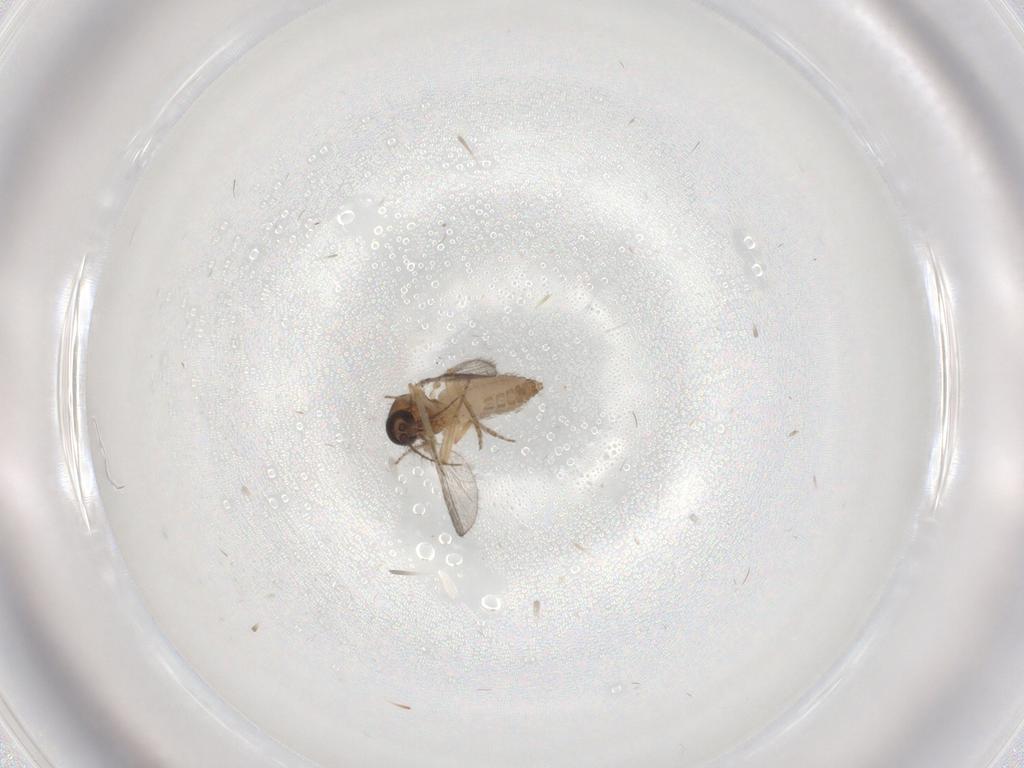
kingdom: Animalia
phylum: Arthropoda
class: Insecta
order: Diptera
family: Ceratopogonidae
